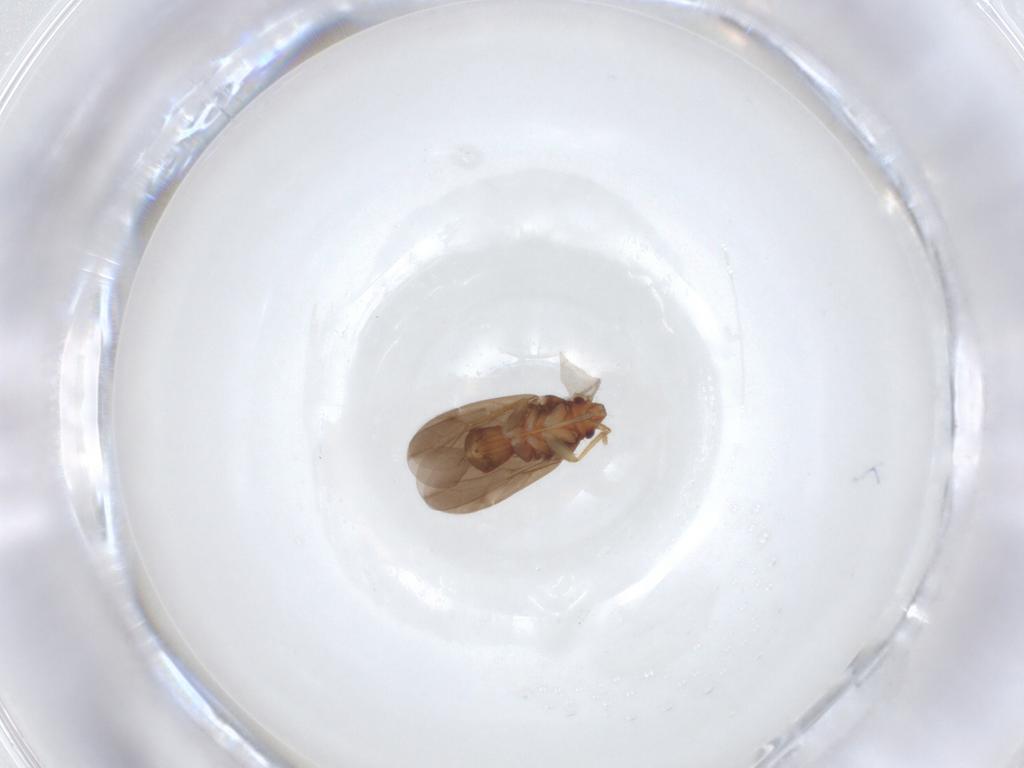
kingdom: Animalia
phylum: Arthropoda
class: Insecta
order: Hemiptera
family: Ceratocombidae
